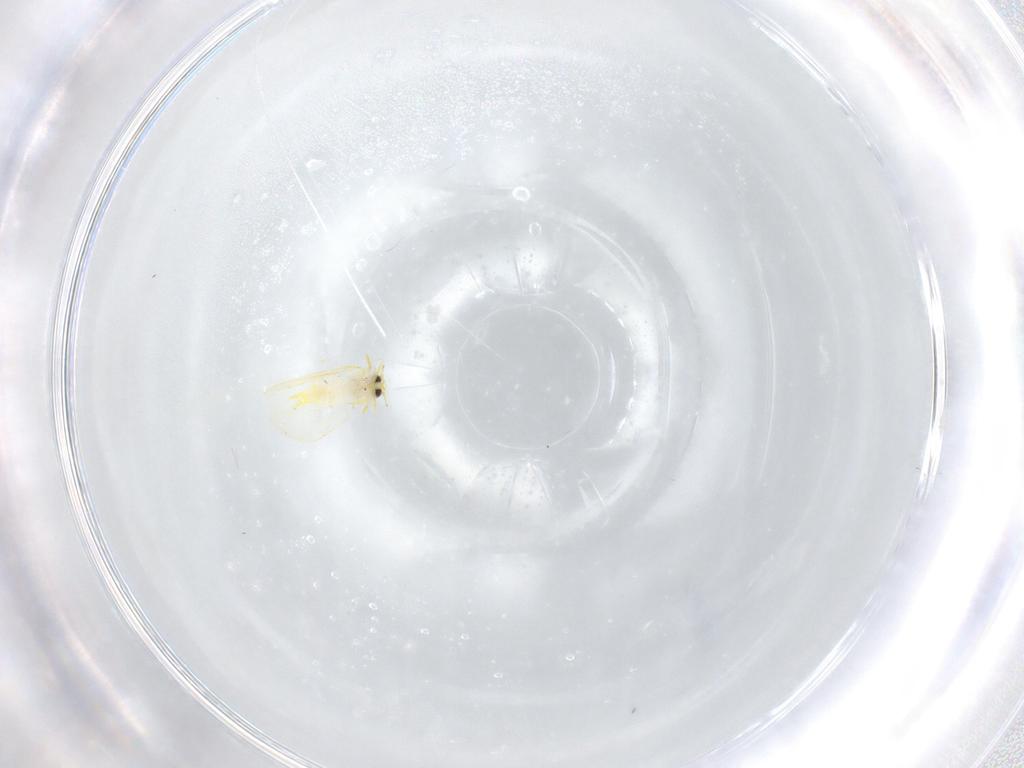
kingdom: Animalia
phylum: Arthropoda
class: Insecta
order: Hemiptera
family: Aleyrodidae
